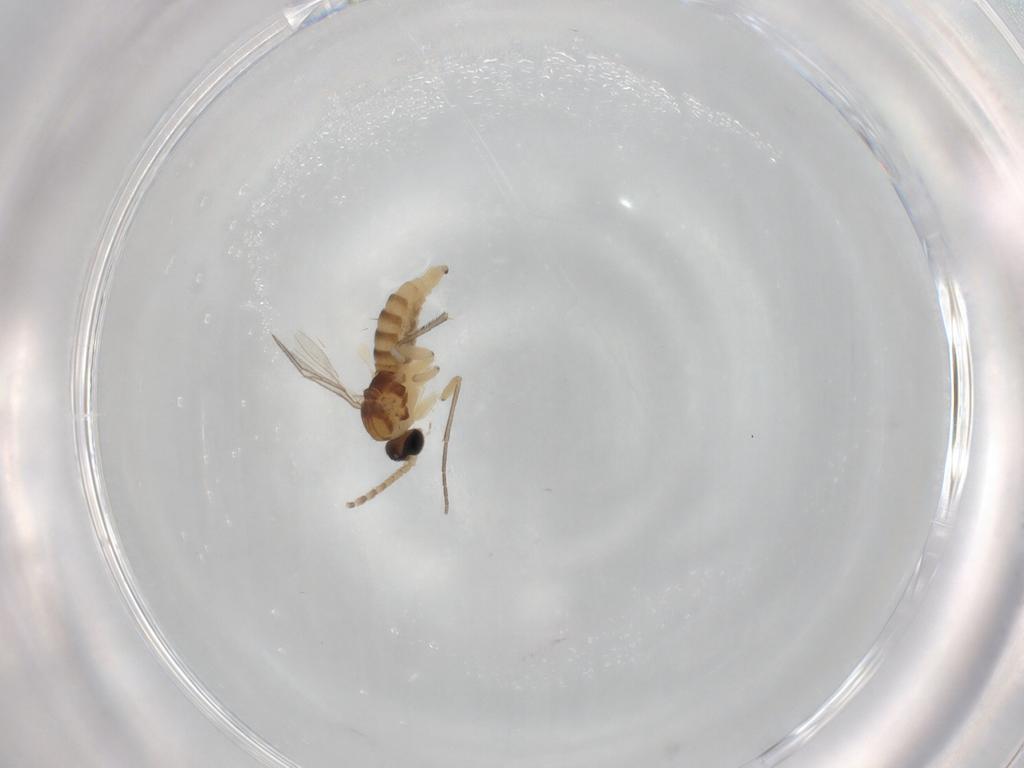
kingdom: Animalia
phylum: Arthropoda
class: Insecta
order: Diptera
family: Sciaridae
